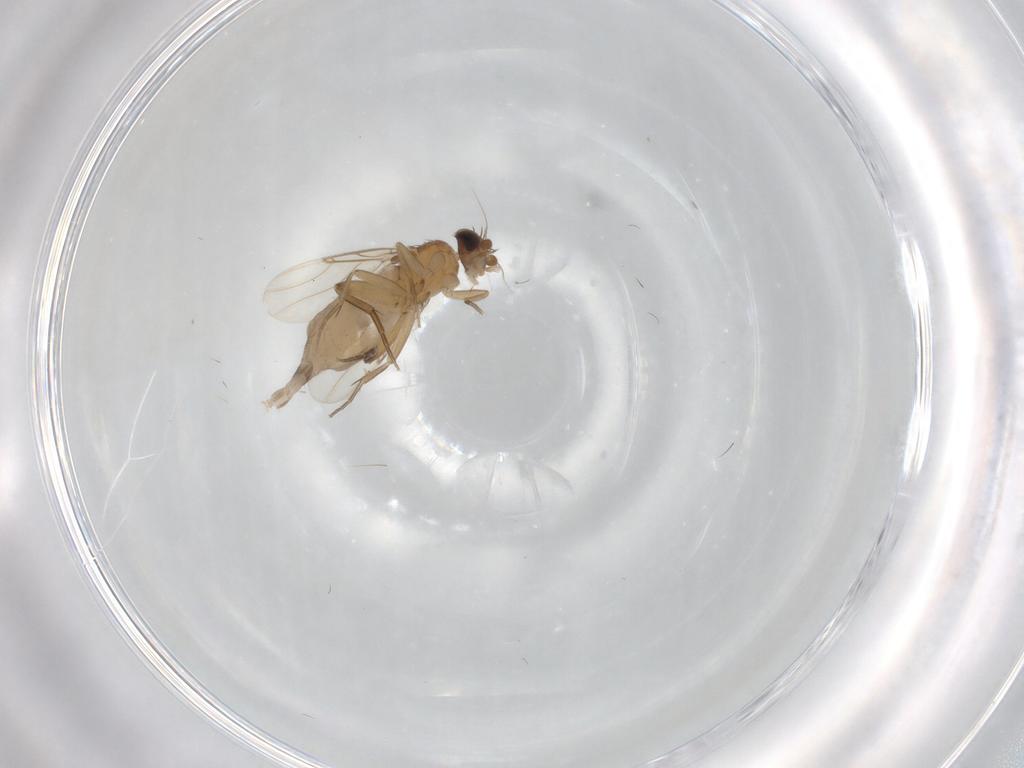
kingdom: Animalia
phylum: Arthropoda
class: Insecta
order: Diptera
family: Phoridae
